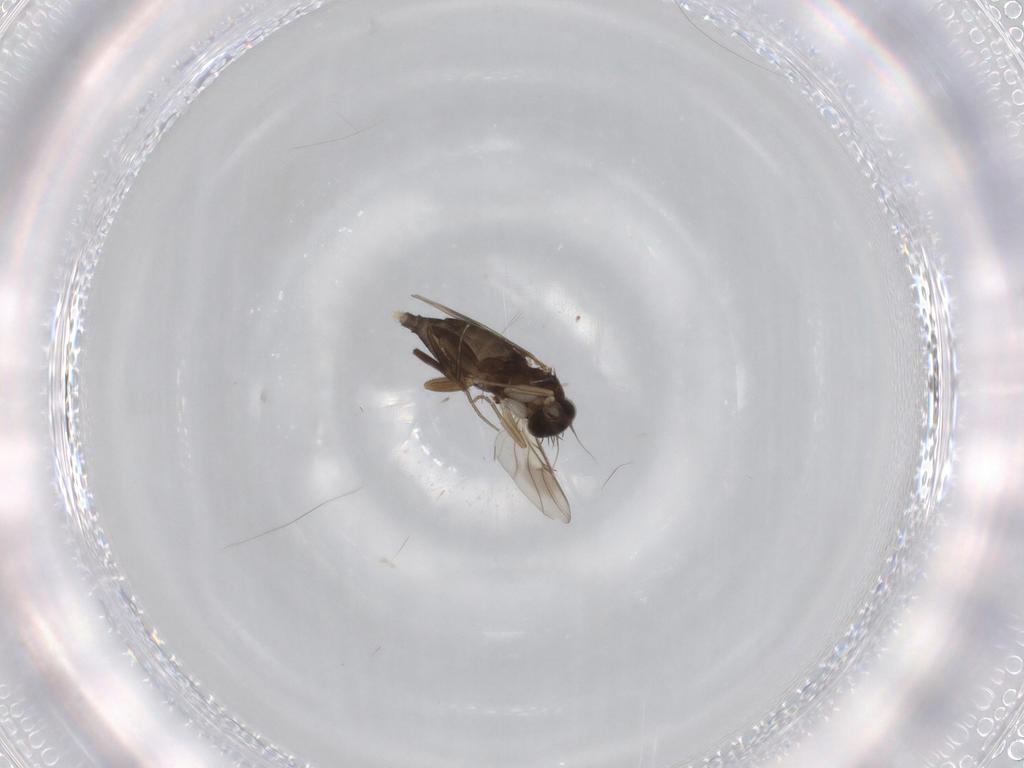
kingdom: Animalia
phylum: Arthropoda
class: Insecta
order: Diptera
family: Phoridae
